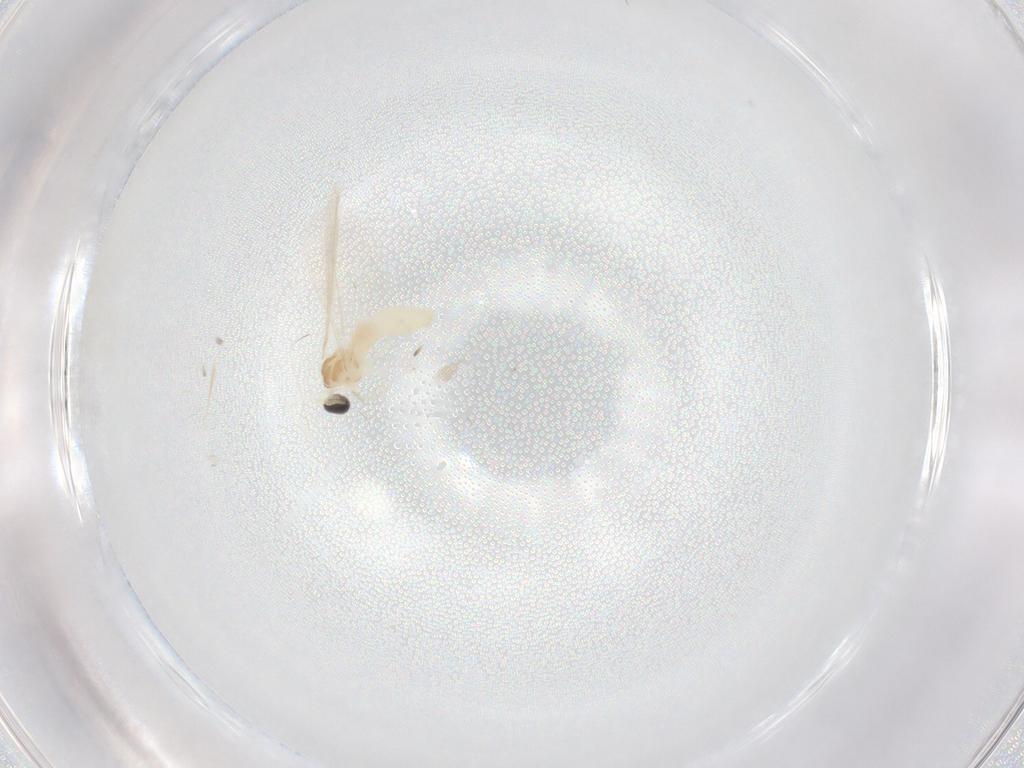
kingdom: Animalia
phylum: Arthropoda
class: Insecta
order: Diptera
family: Cecidomyiidae
